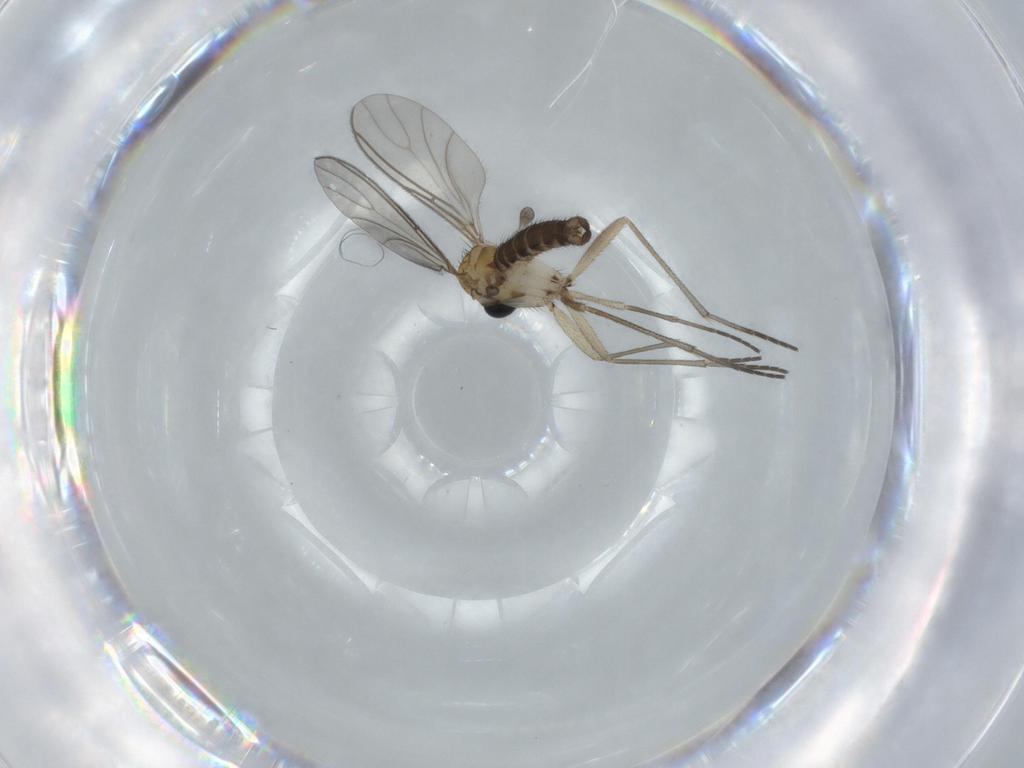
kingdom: Animalia
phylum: Arthropoda
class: Insecta
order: Diptera
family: Sciaridae
